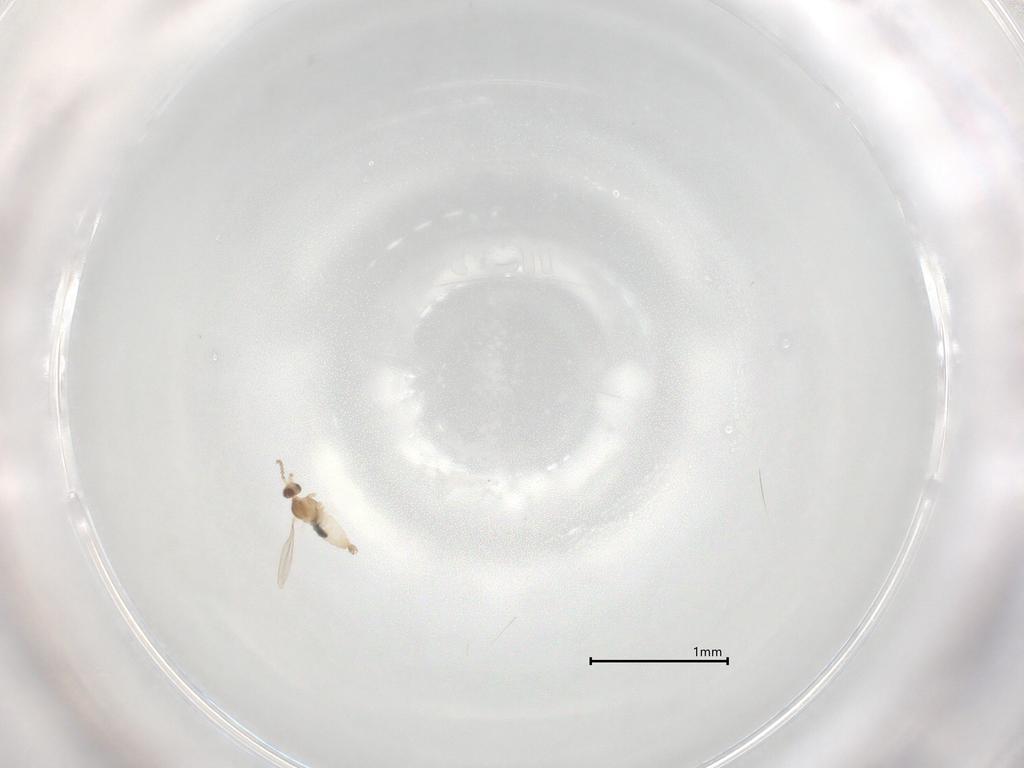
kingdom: Animalia
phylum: Arthropoda
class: Insecta
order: Diptera
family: Cecidomyiidae
